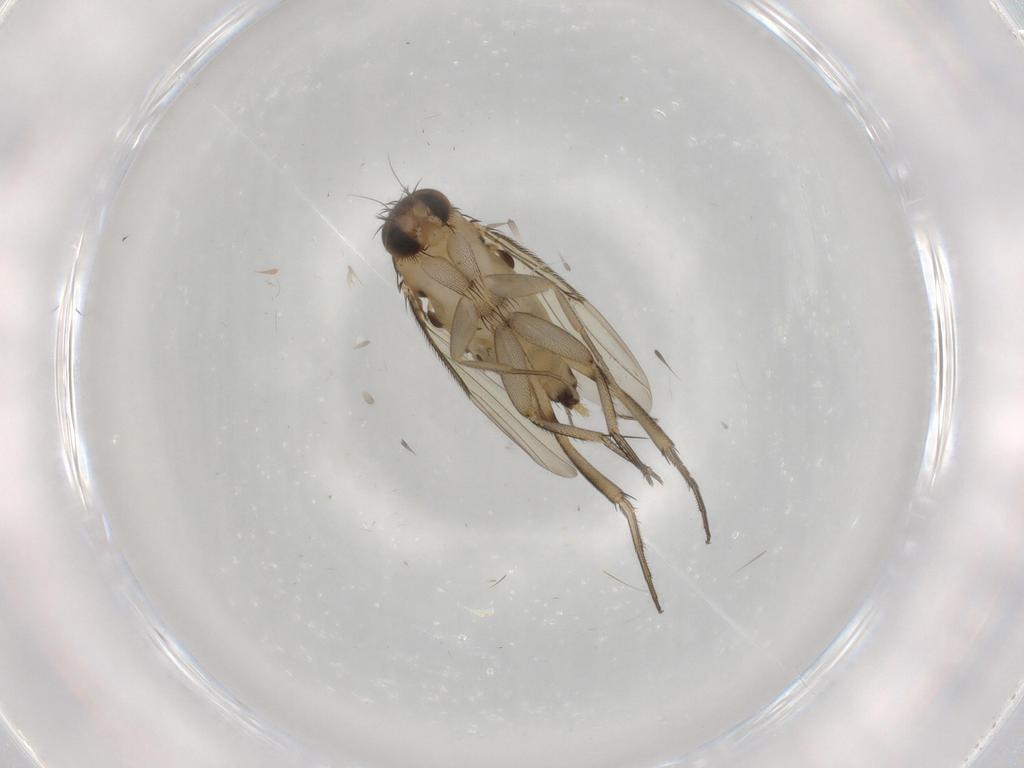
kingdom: Animalia
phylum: Arthropoda
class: Insecta
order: Diptera
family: Phoridae
